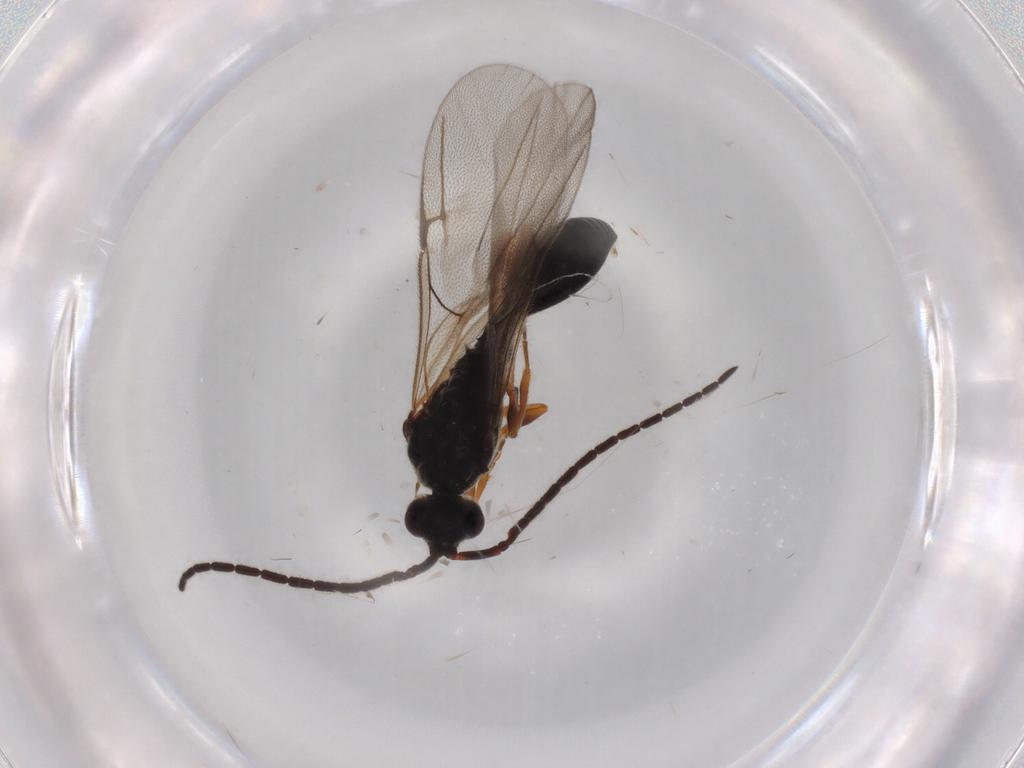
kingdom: Animalia
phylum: Arthropoda
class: Insecta
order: Hymenoptera
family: Diapriidae
